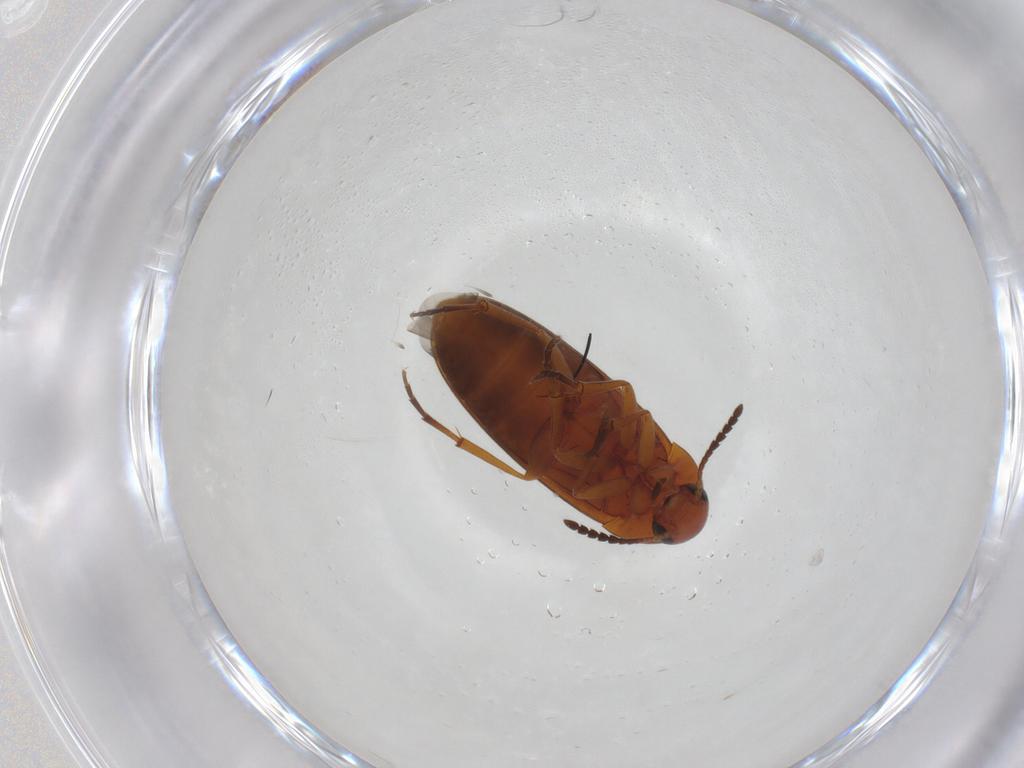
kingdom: Animalia
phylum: Arthropoda
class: Insecta
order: Coleoptera
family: Scraptiidae
